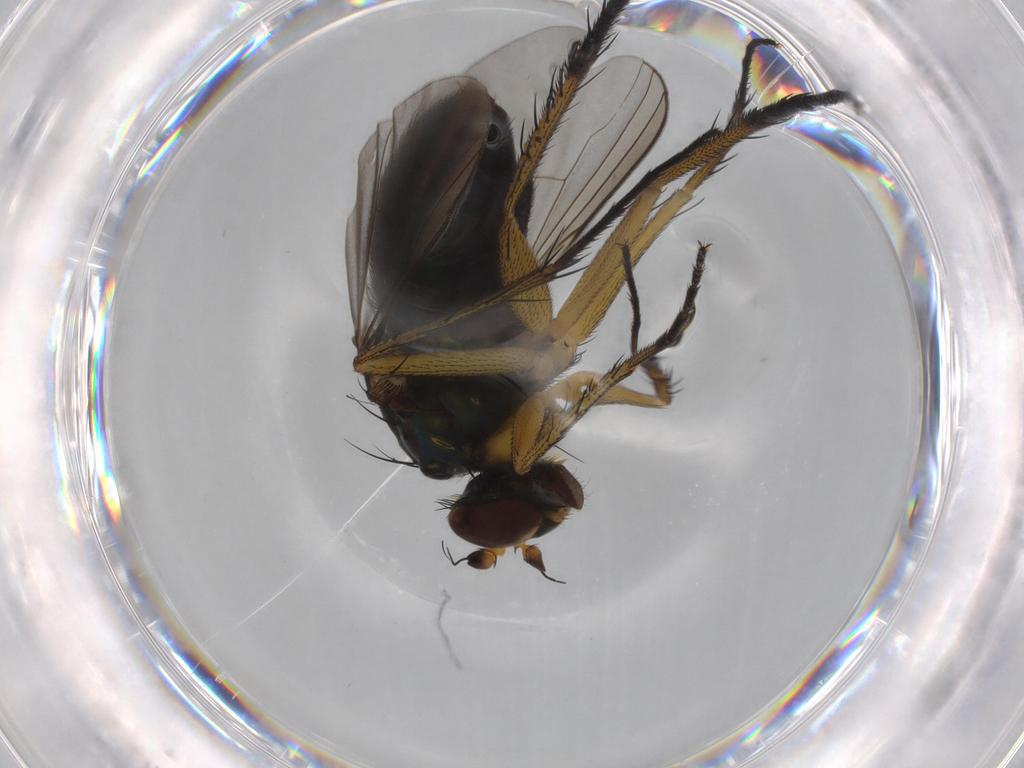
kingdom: Animalia
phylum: Arthropoda
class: Insecta
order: Diptera
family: Dolichopodidae
